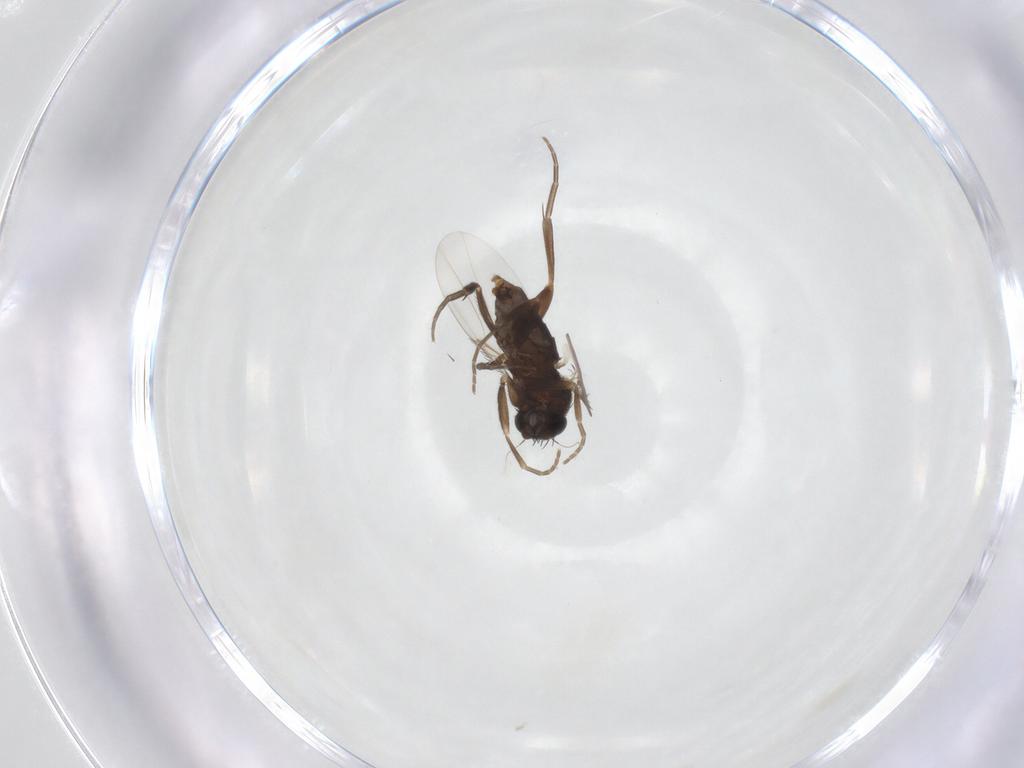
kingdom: Animalia
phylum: Arthropoda
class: Insecta
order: Diptera
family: Phoridae
